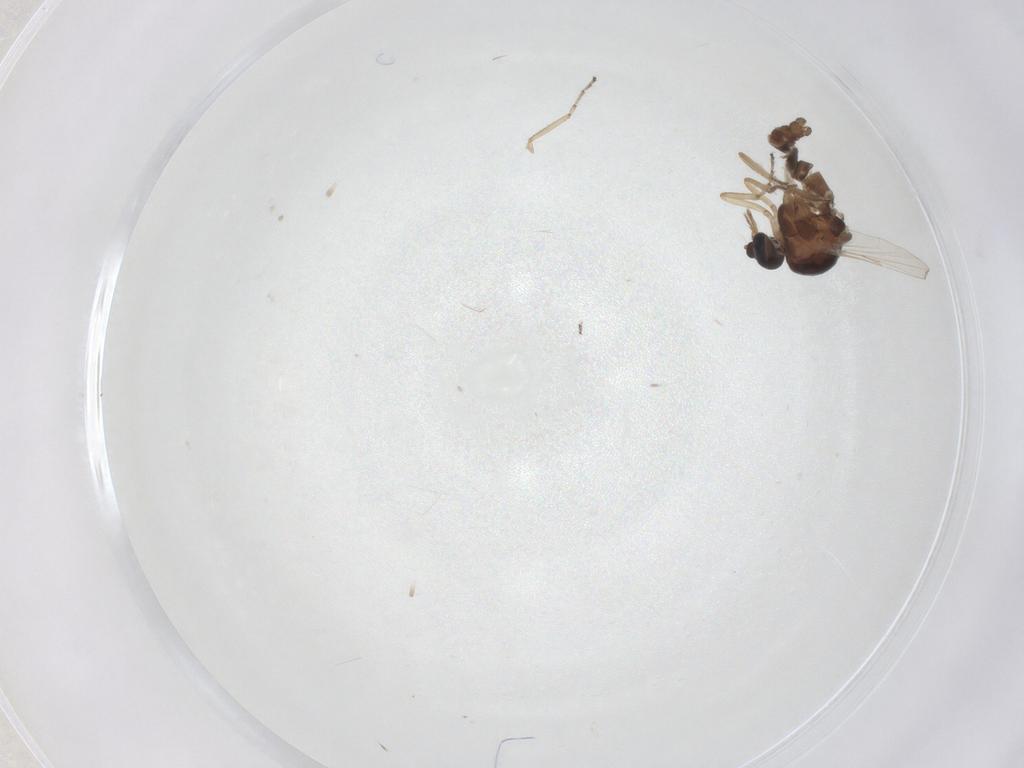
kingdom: Animalia
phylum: Arthropoda
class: Insecta
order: Diptera
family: Ceratopogonidae
